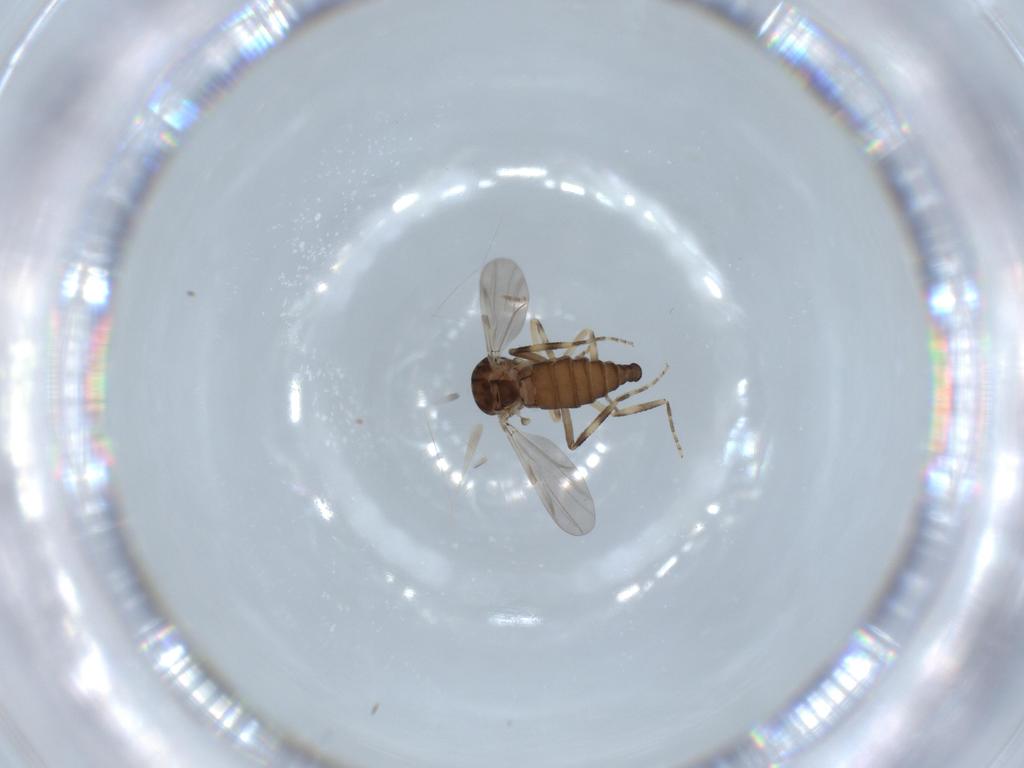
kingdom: Animalia
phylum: Arthropoda
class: Insecta
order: Diptera
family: Ceratopogonidae
